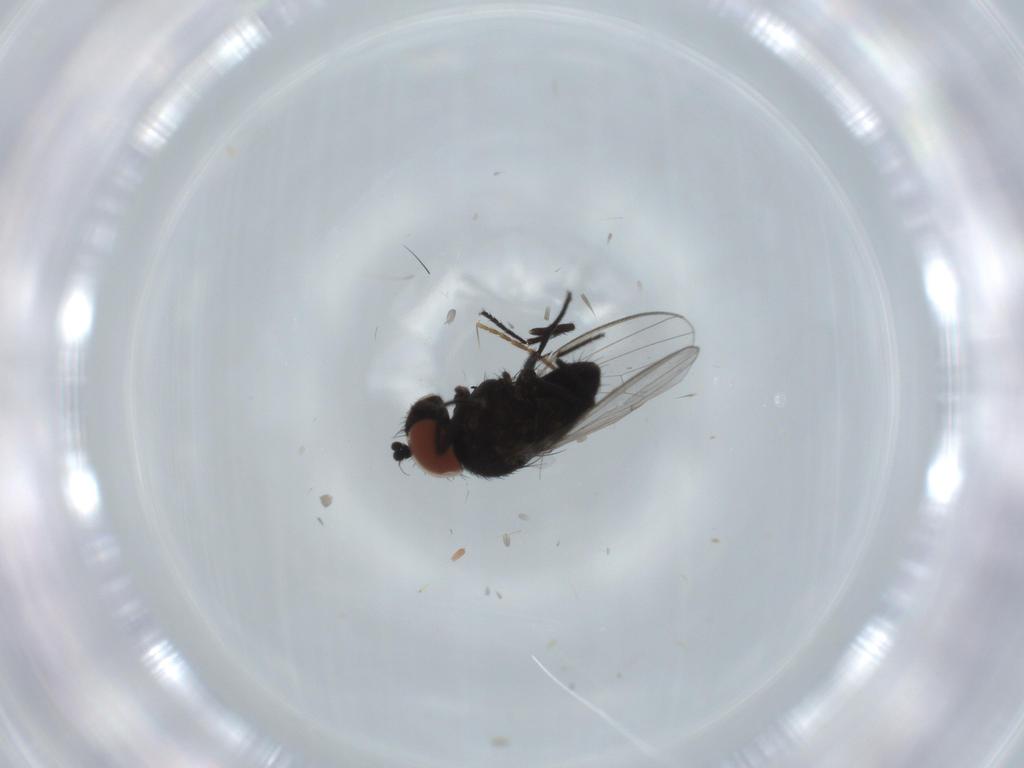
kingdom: Animalia
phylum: Arthropoda
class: Insecta
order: Diptera
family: Milichiidae
